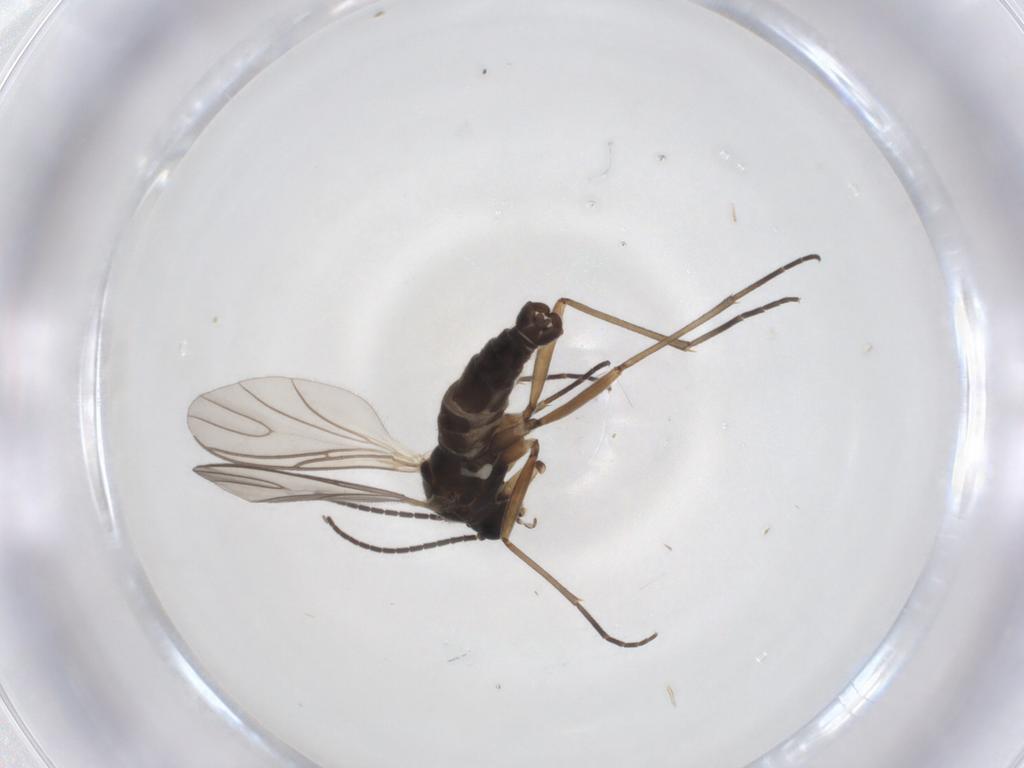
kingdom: Animalia
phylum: Arthropoda
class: Insecta
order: Diptera
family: Sciaridae
